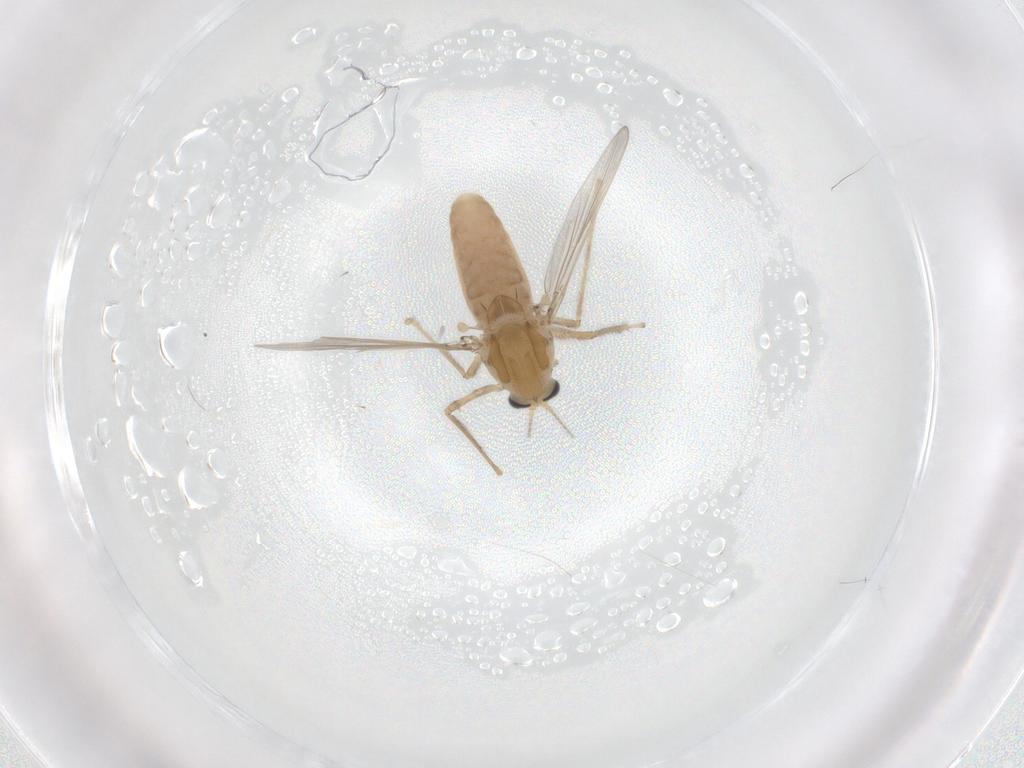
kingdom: Animalia
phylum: Arthropoda
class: Insecta
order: Diptera
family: Chironomidae
